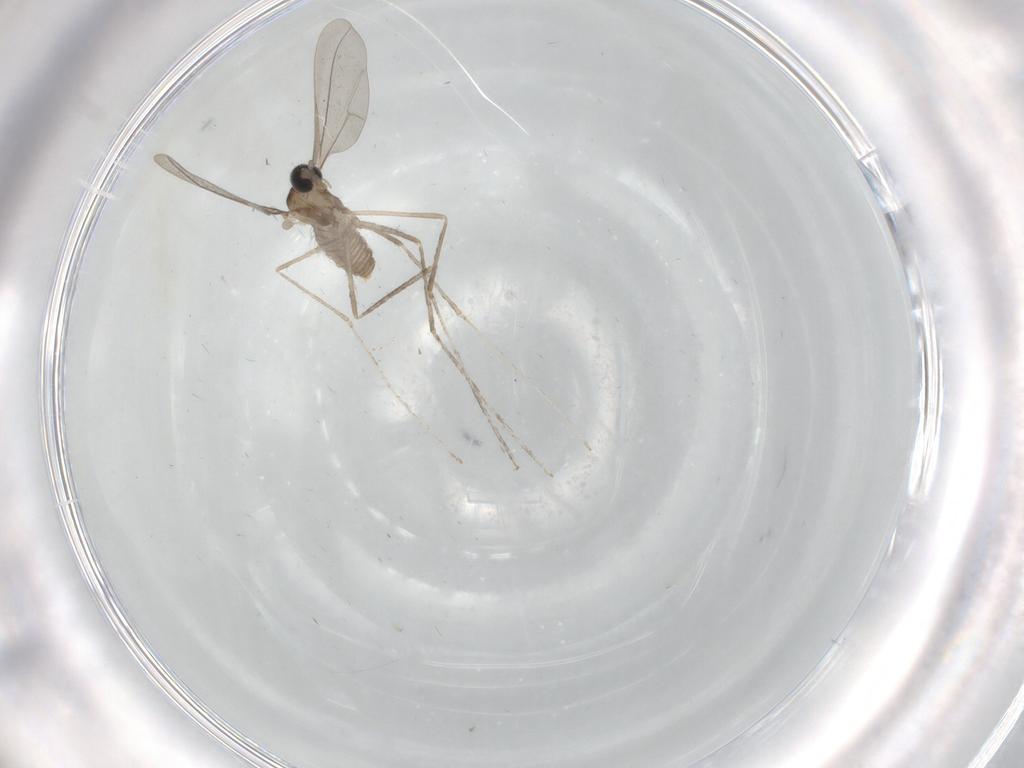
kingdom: Animalia
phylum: Arthropoda
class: Insecta
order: Diptera
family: Cecidomyiidae
